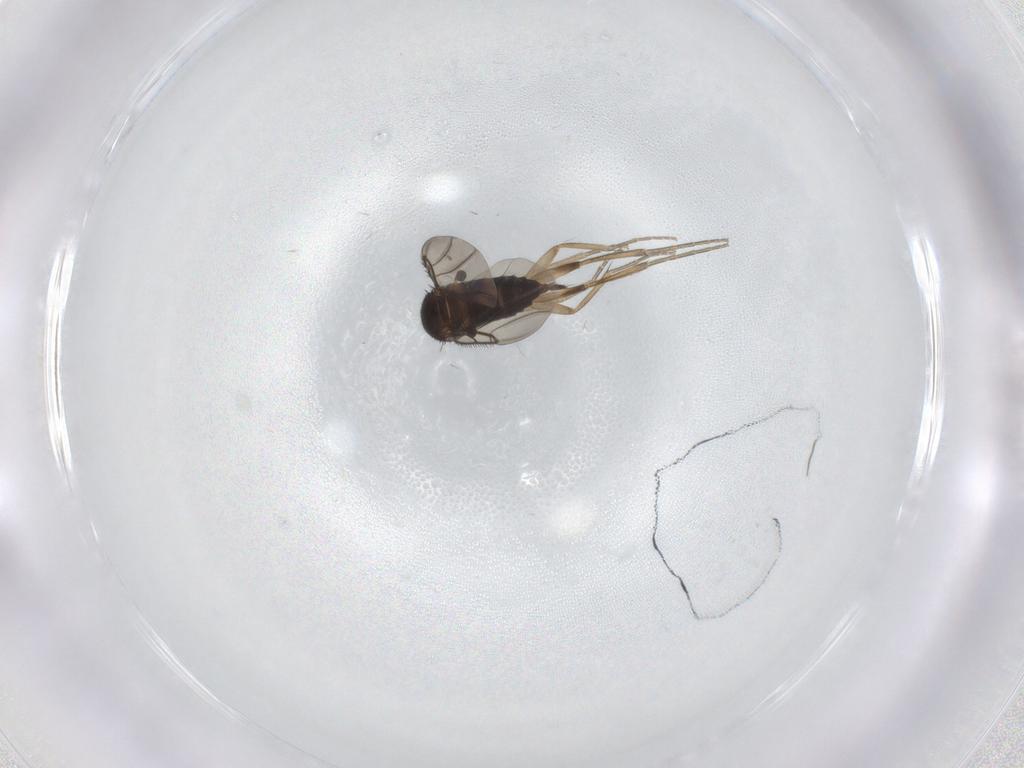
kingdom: Animalia
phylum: Arthropoda
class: Insecta
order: Diptera
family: Phoridae
